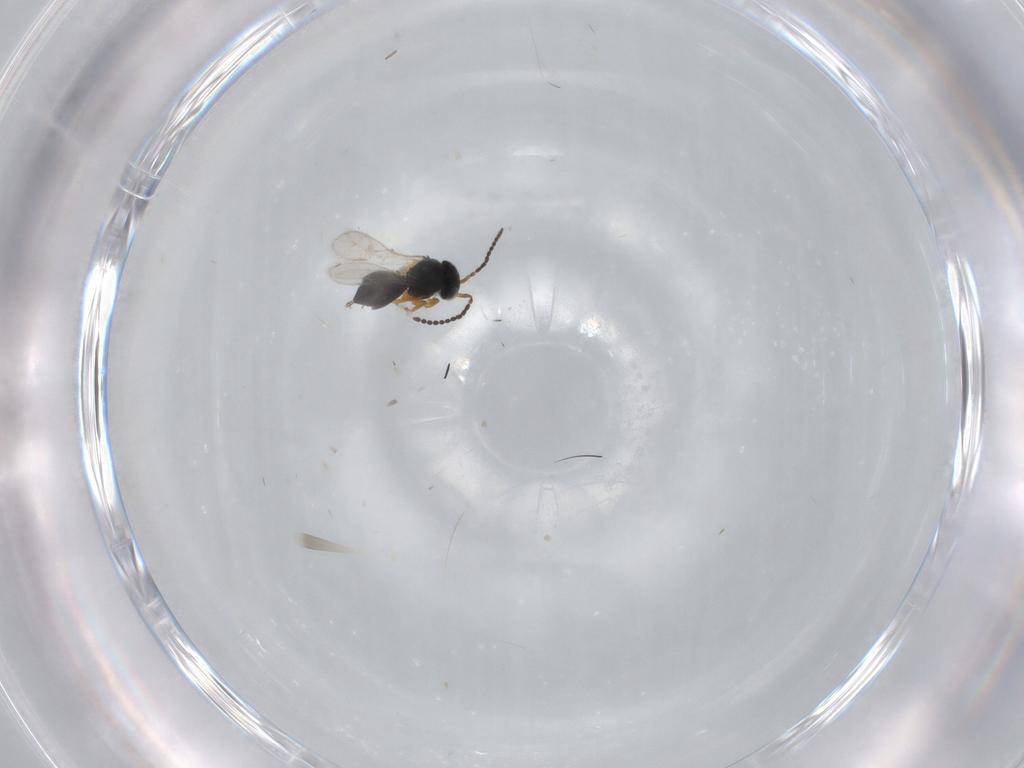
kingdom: Animalia
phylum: Arthropoda
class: Insecta
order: Hymenoptera
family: Scelionidae
